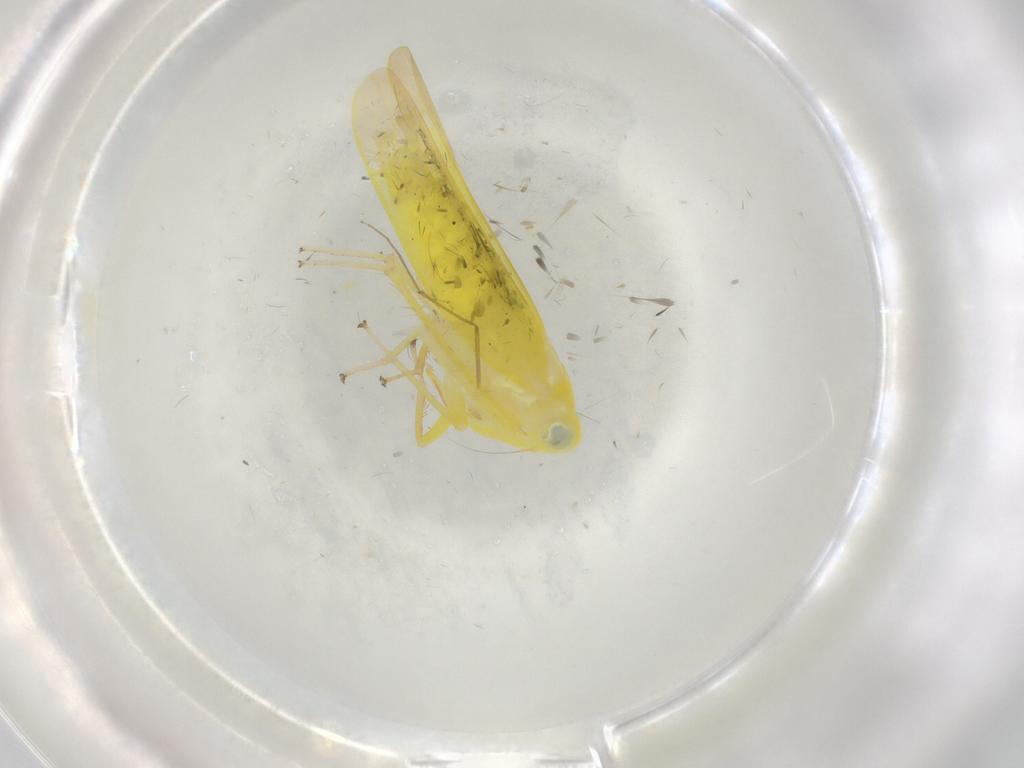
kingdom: Animalia
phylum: Arthropoda
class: Insecta
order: Hemiptera
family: Cicadellidae
